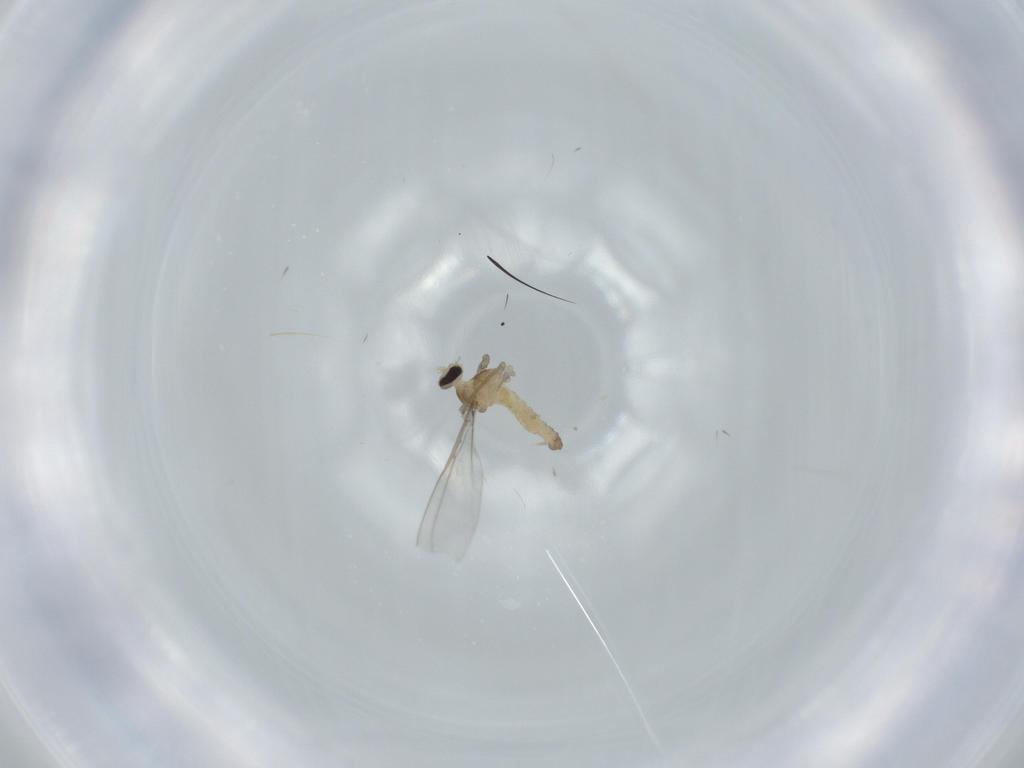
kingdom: Animalia
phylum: Arthropoda
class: Insecta
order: Diptera
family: Cecidomyiidae
